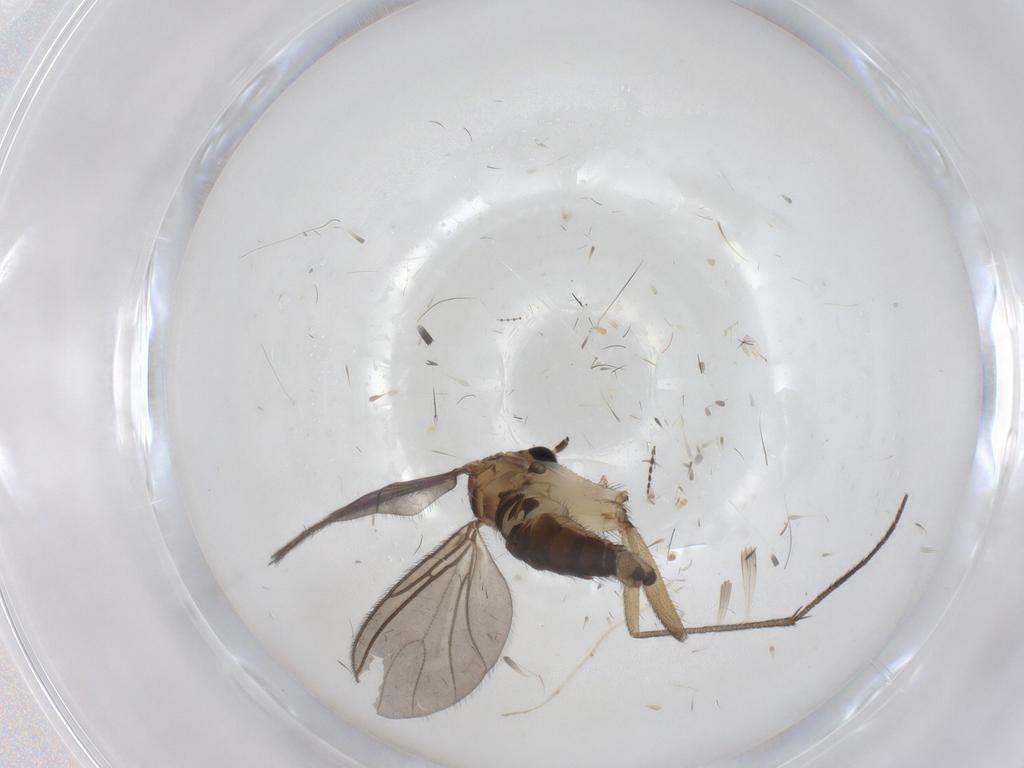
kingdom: Animalia
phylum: Arthropoda
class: Insecta
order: Diptera
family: Sciaridae
